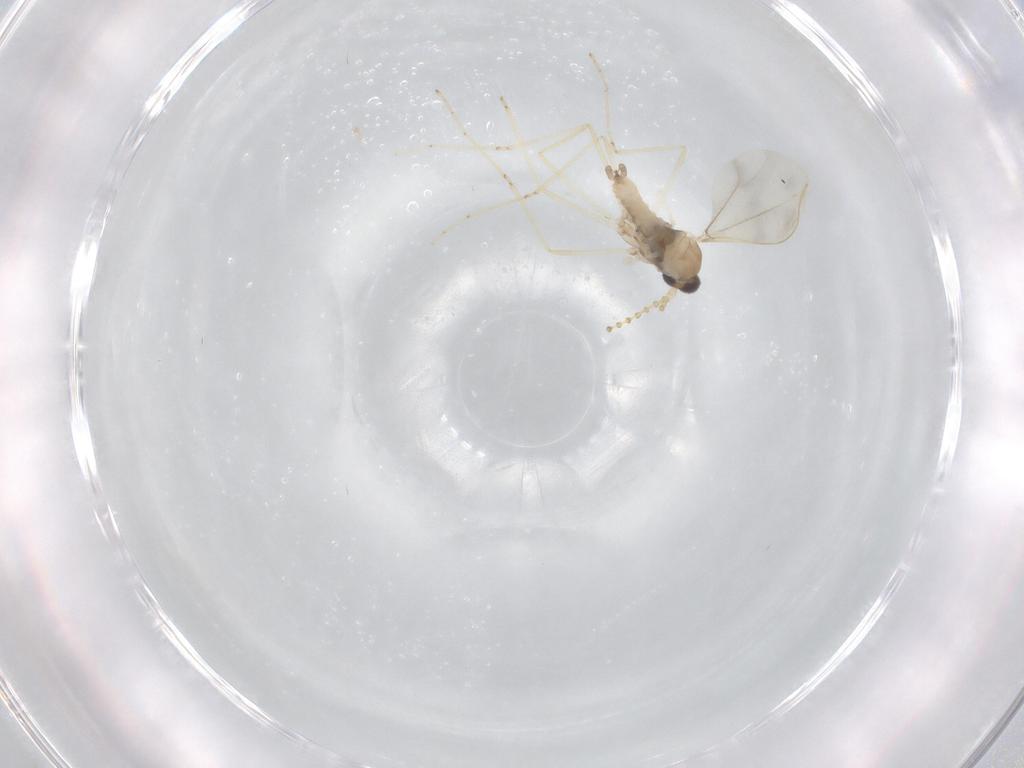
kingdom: Animalia
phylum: Arthropoda
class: Insecta
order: Diptera
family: Cecidomyiidae
